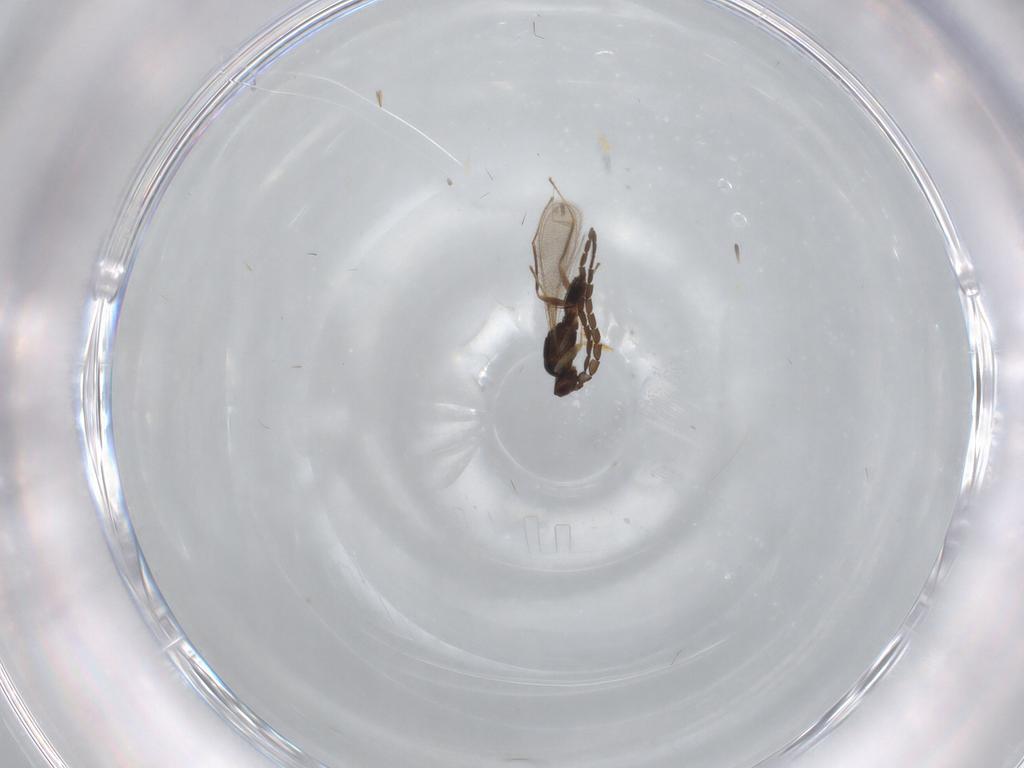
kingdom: Animalia
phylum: Arthropoda
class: Insecta
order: Diptera
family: Sciaridae
